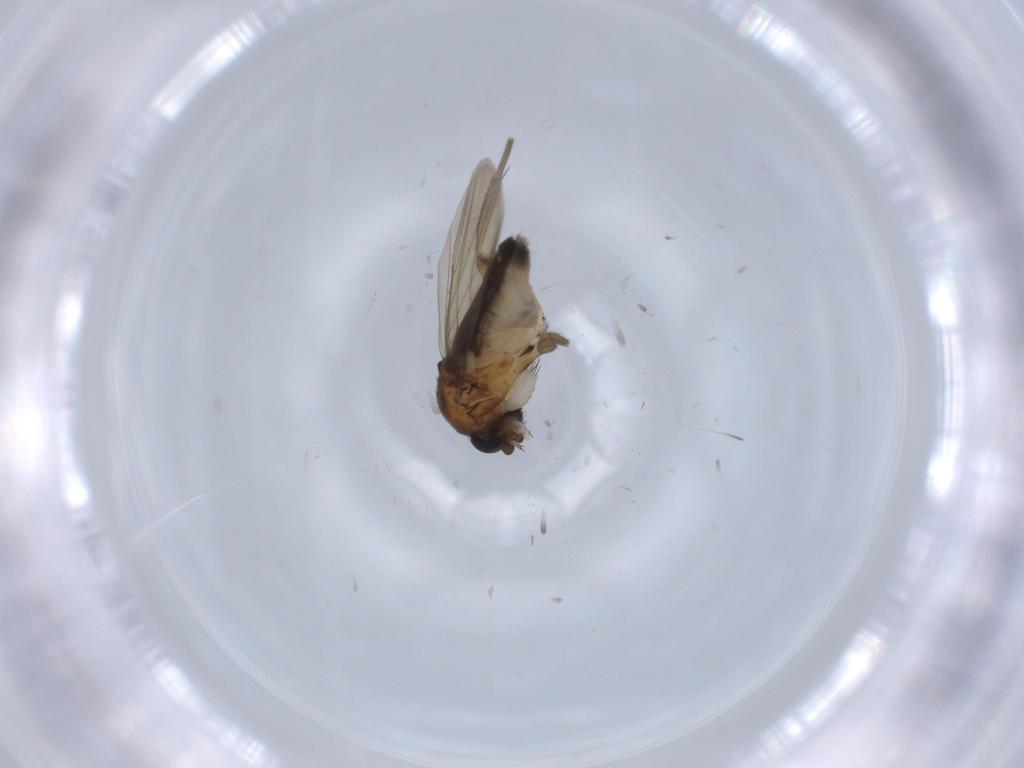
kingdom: Animalia
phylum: Arthropoda
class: Insecta
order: Diptera
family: Phoridae
